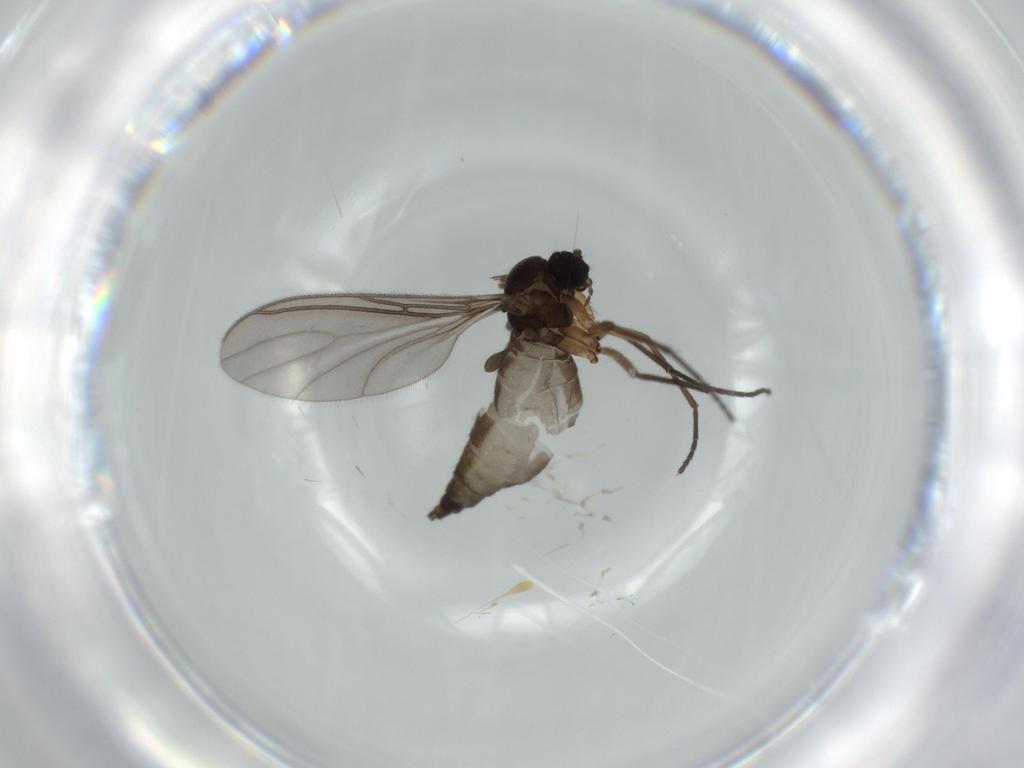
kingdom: Animalia
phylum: Arthropoda
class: Insecta
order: Diptera
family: Sciaridae
